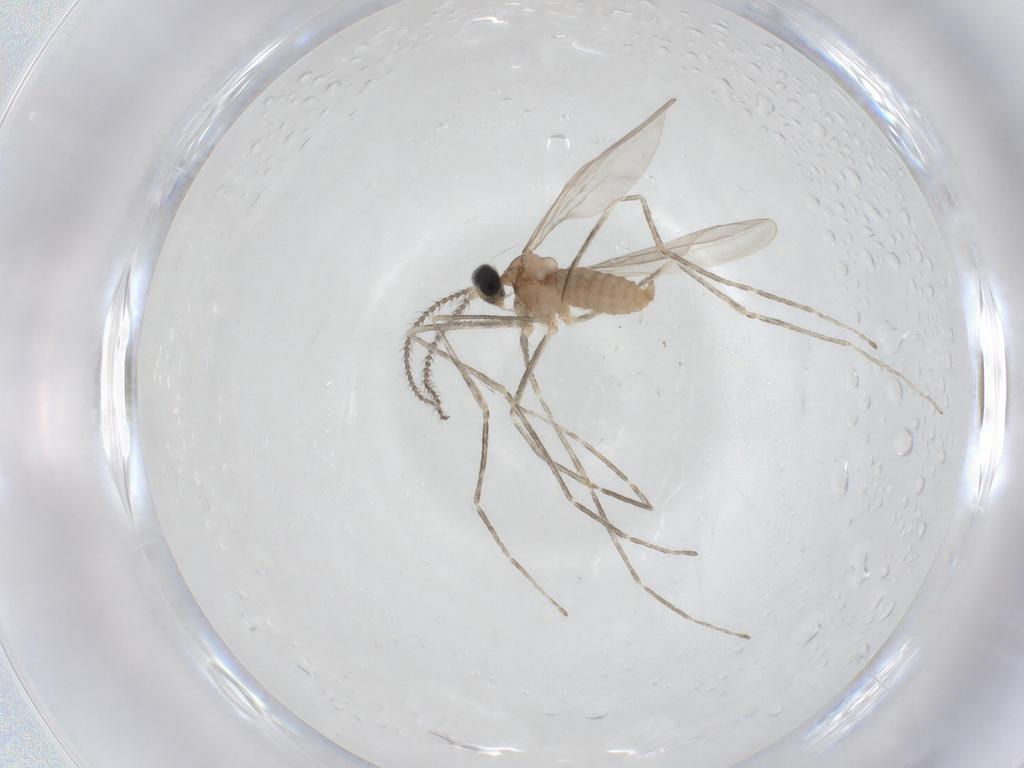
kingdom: Animalia
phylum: Arthropoda
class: Insecta
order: Diptera
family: Cecidomyiidae
